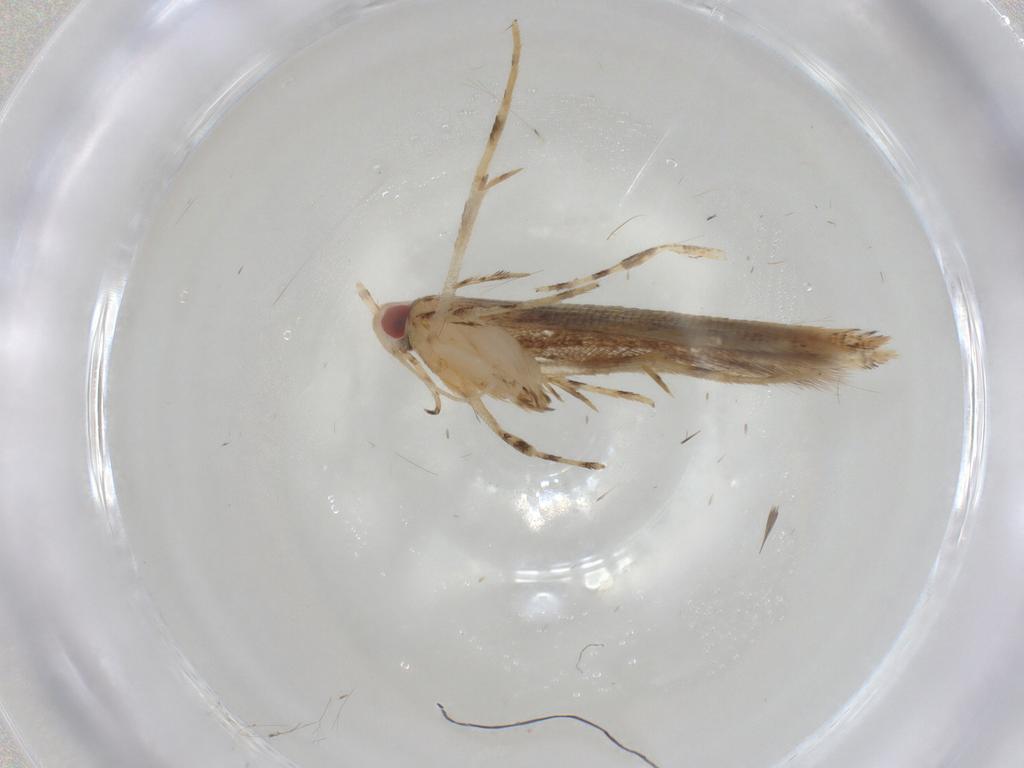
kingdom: Animalia
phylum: Arthropoda
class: Insecta
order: Lepidoptera
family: Cosmopterigidae
